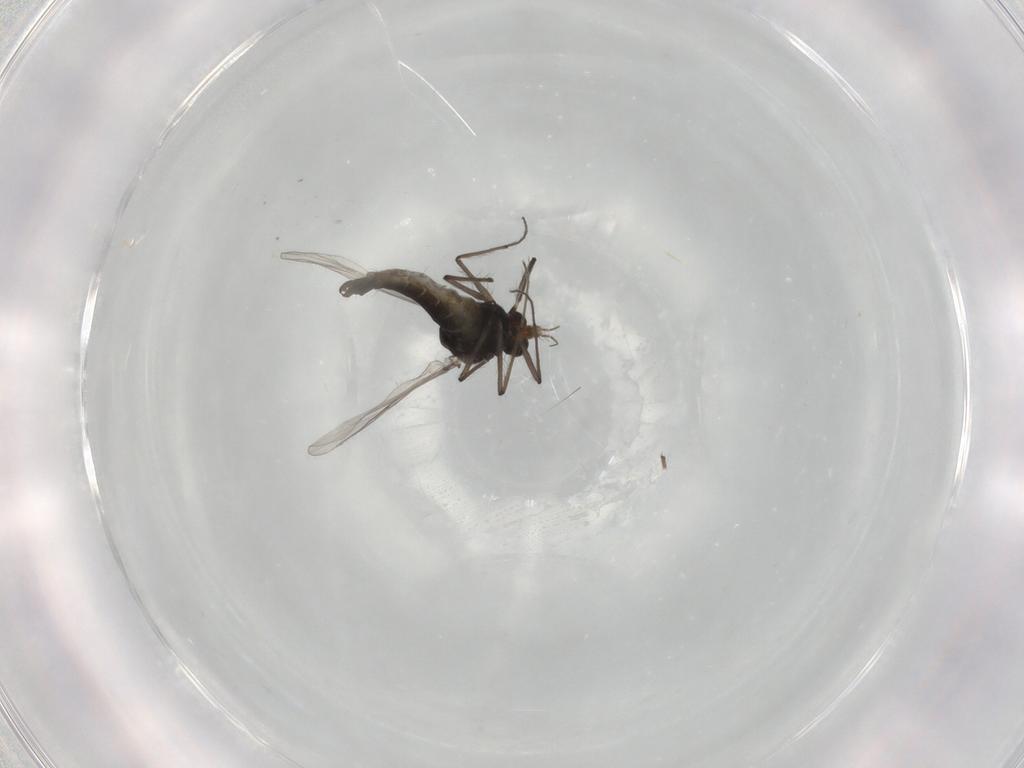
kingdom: Animalia
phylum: Arthropoda
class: Insecta
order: Diptera
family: Chironomidae
